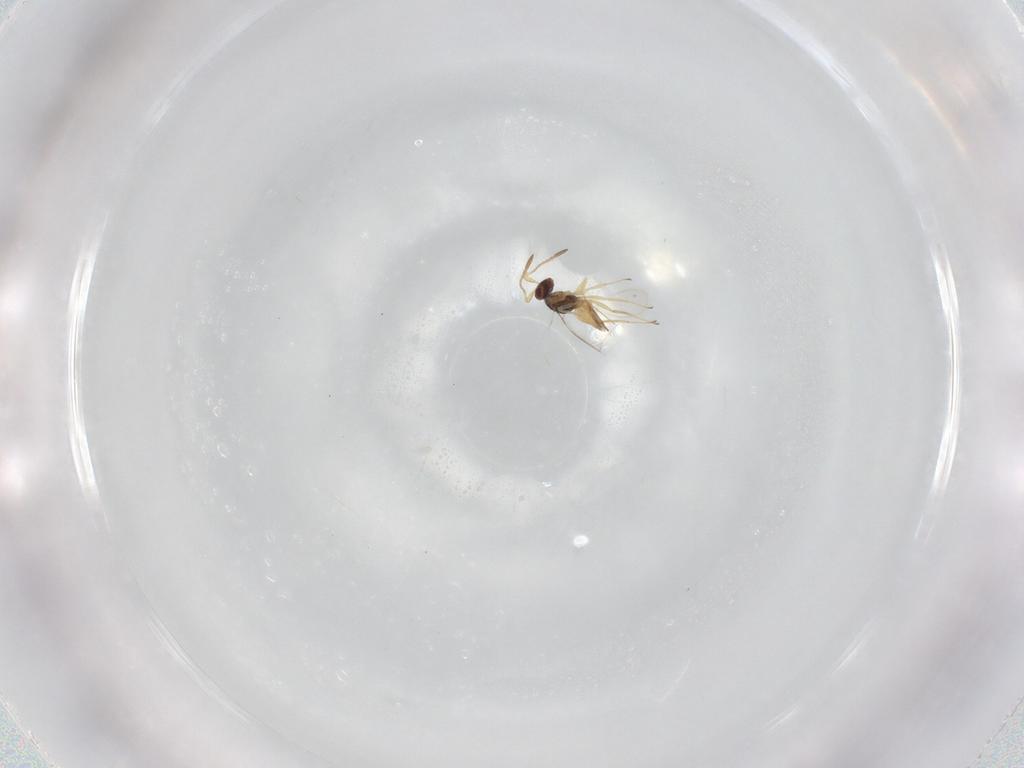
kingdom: Animalia
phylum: Arthropoda
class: Insecta
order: Hymenoptera
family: Mymaridae
